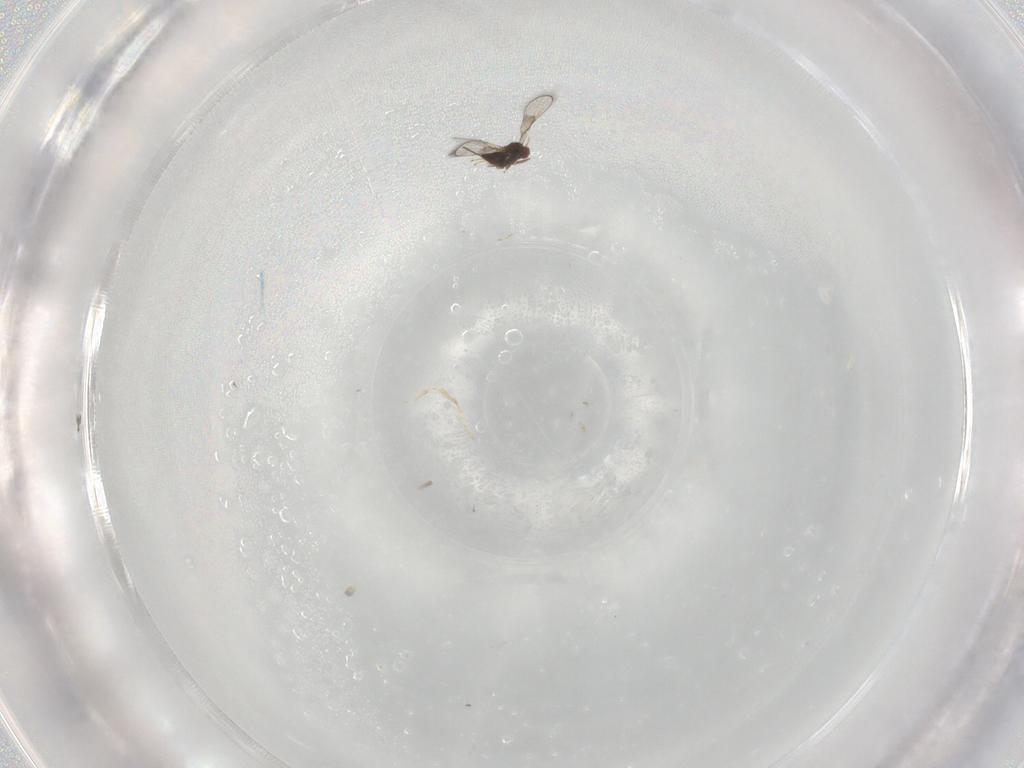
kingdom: Animalia
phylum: Arthropoda
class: Insecta
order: Hymenoptera
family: Trichogrammatidae
